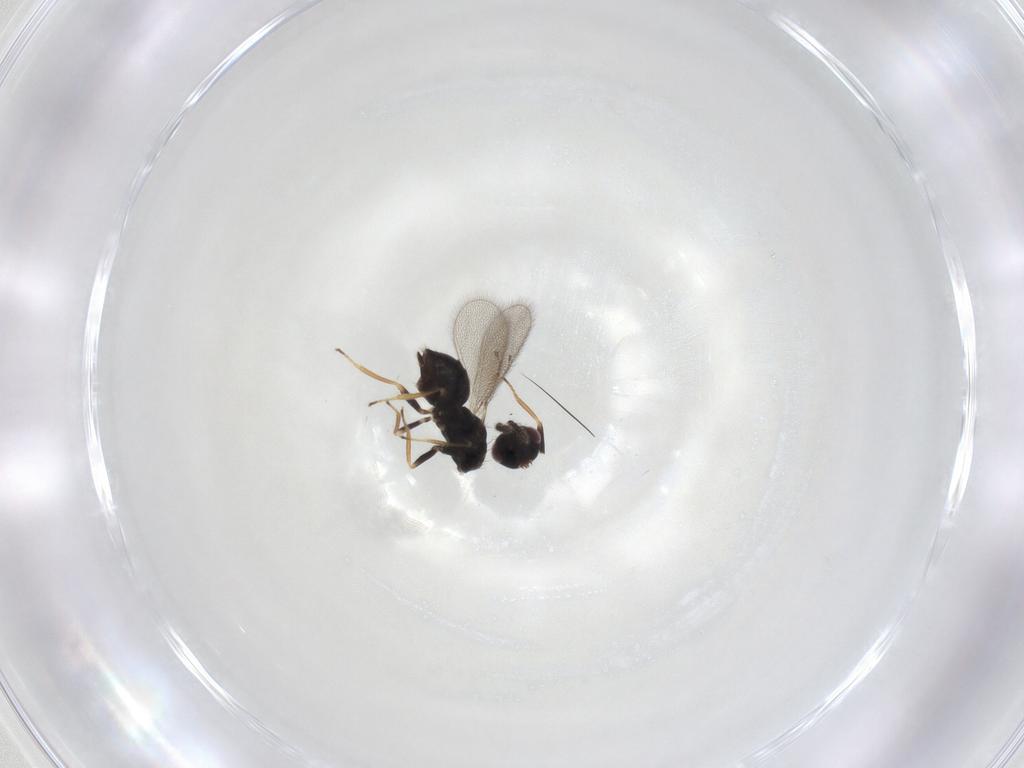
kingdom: Animalia
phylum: Arthropoda
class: Insecta
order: Hymenoptera
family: Eulophidae
